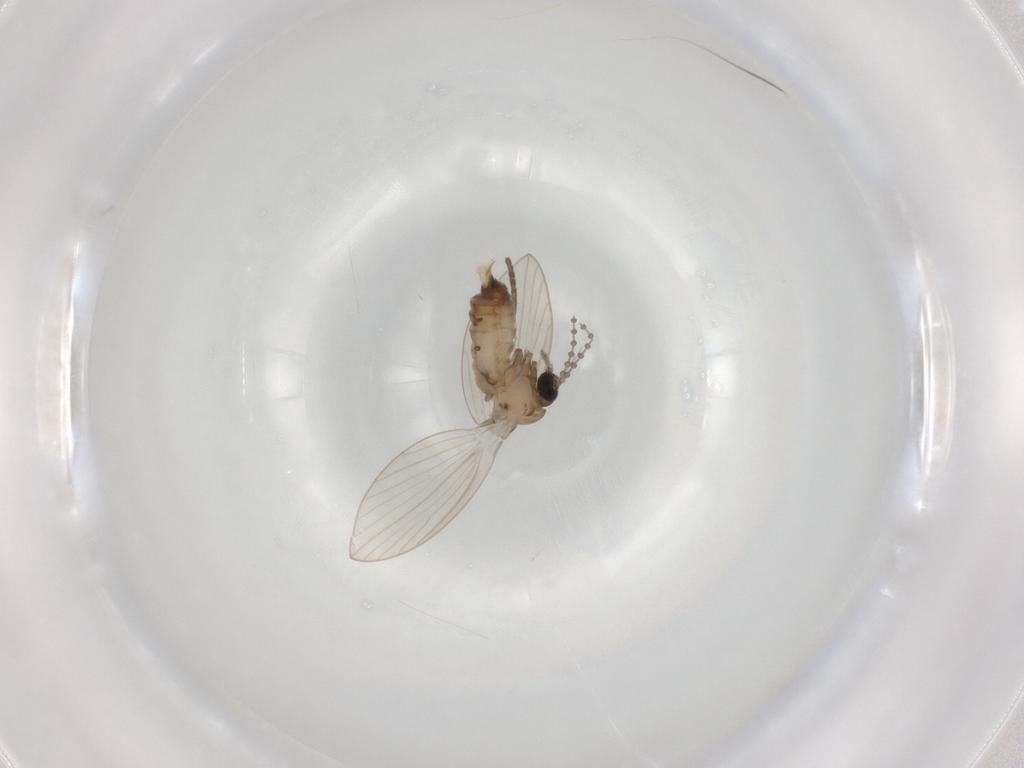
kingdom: Animalia
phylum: Arthropoda
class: Insecta
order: Diptera
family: Psychodidae
